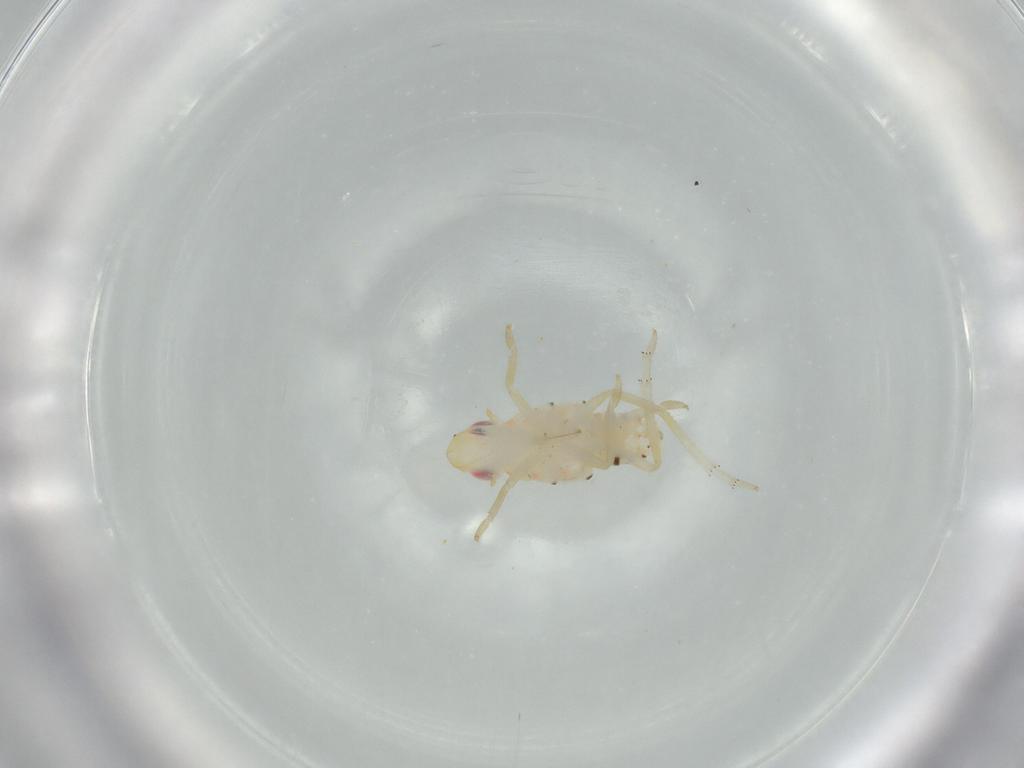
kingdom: Animalia
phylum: Arthropoda
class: Insecta
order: Hemiptera
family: Tropiduchidae
